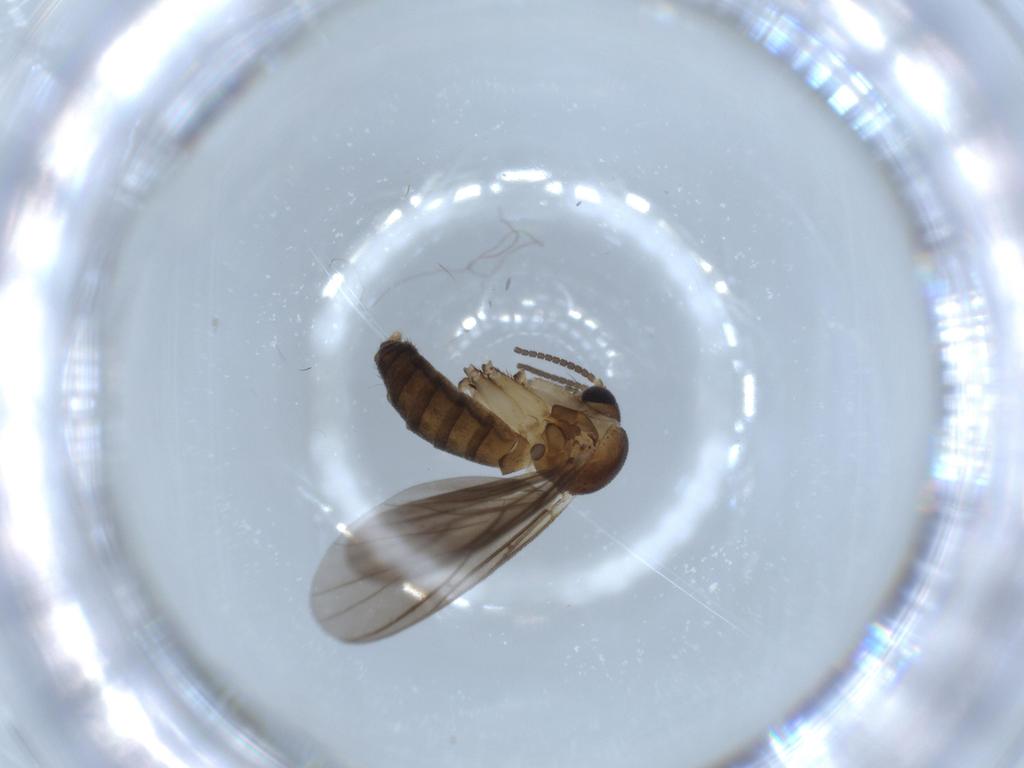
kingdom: Animalia
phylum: Arthropoda
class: Insecta
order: Diptera
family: Mycetophilidae
